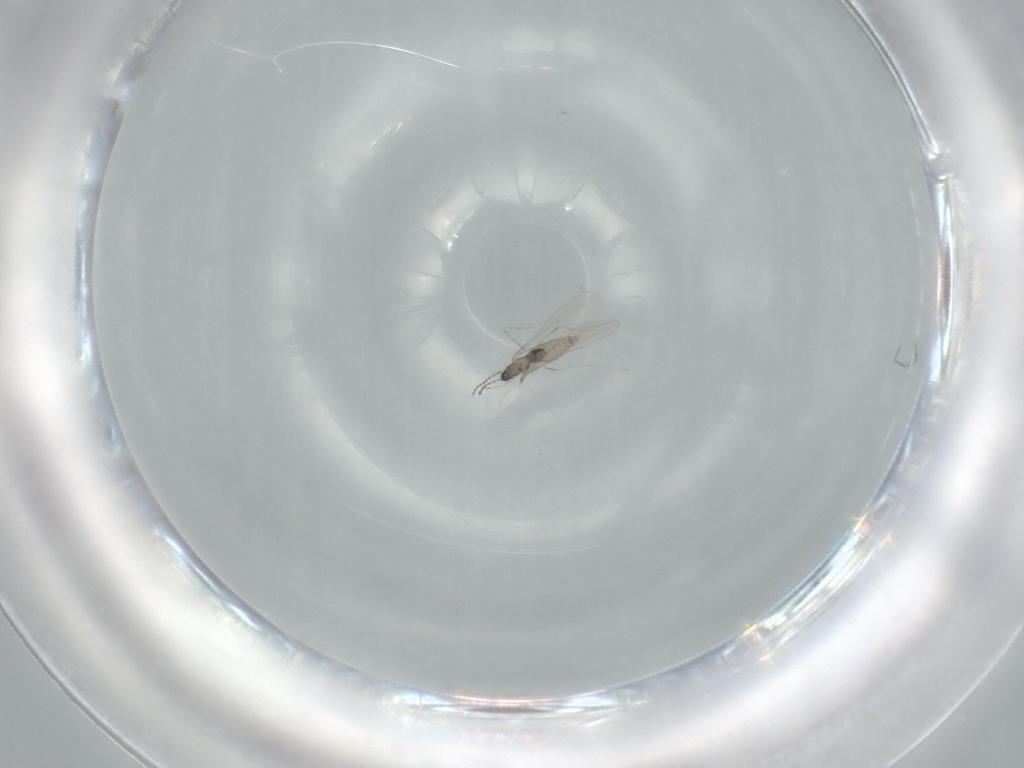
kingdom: Animalia
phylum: Arthropoda
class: Insecta
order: Diptera
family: Cecidomyiidae
